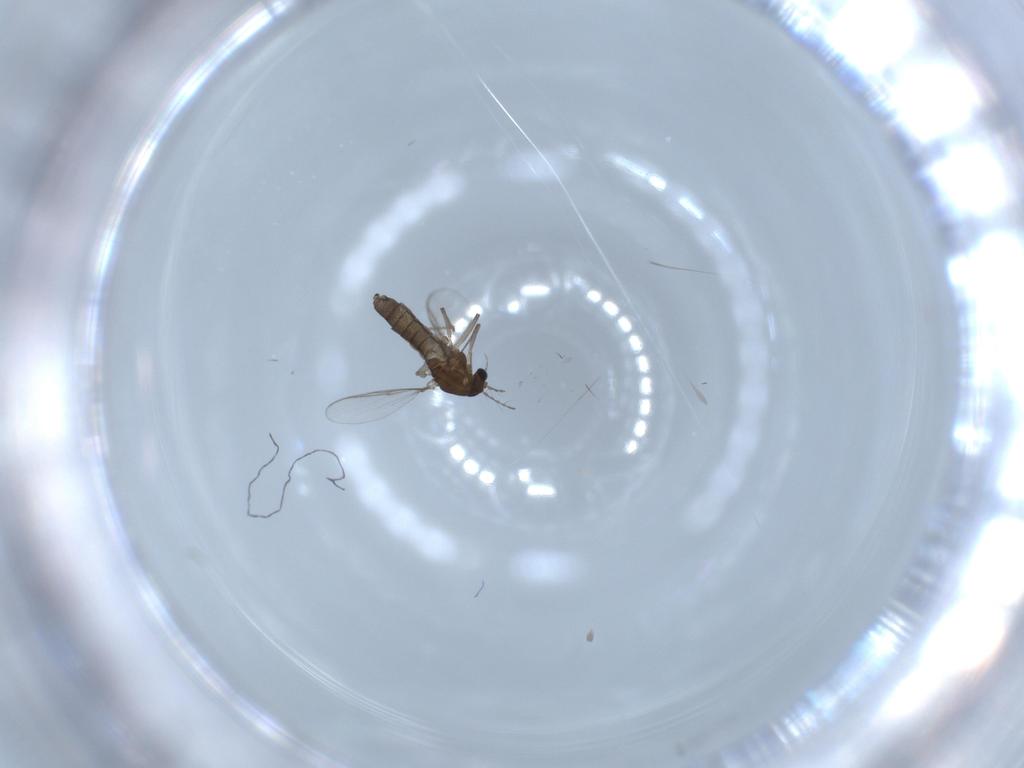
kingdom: Animalia
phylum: Arthropoda
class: Insecta
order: Diptera
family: Chironomidae
